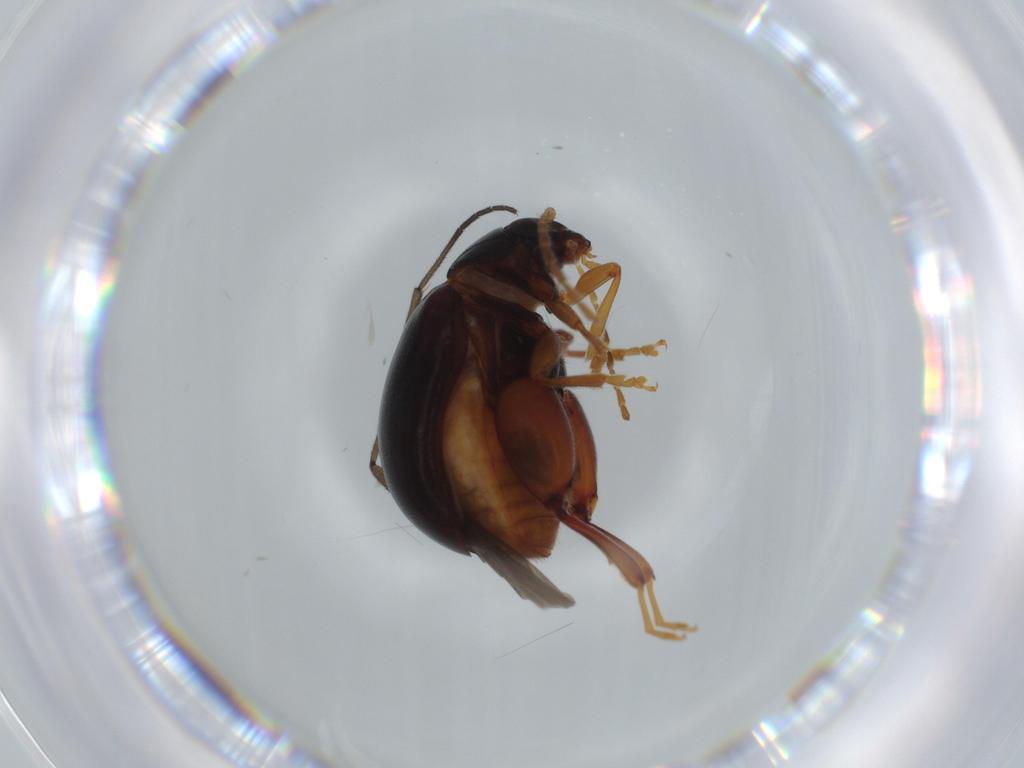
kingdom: Animalia
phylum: Arthropoda
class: Insecta
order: Coleoptera
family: Chrysomelidae
